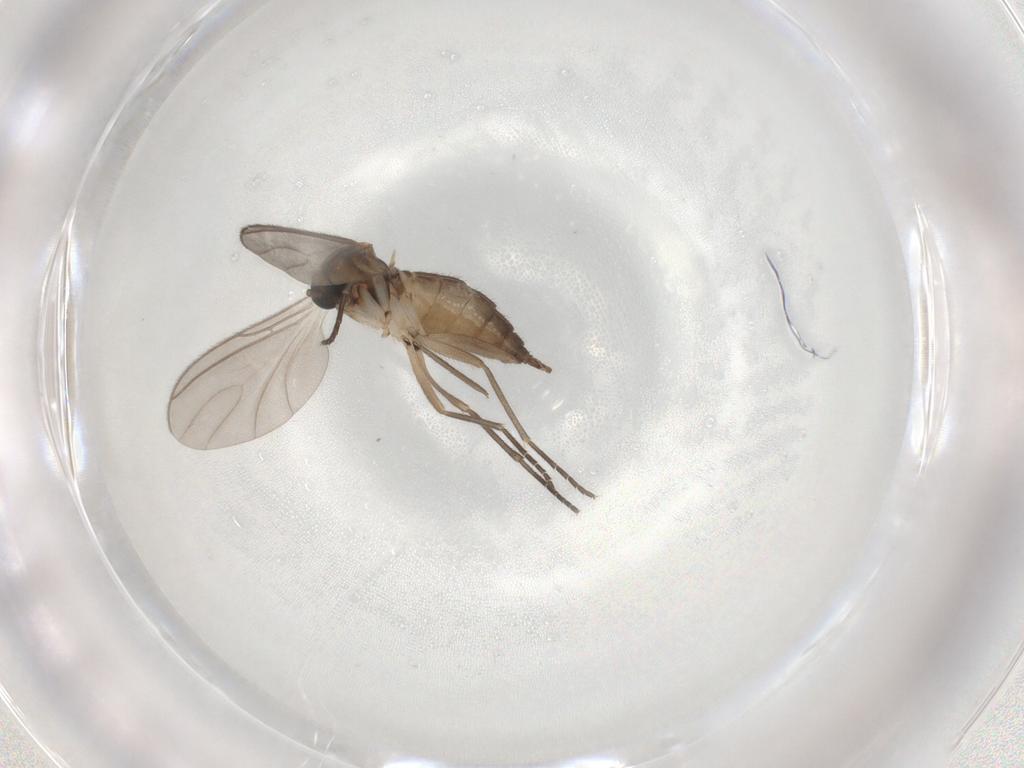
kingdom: Animalia
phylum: Arthropoda
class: Insecta
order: Diptera
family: Sciaridae
